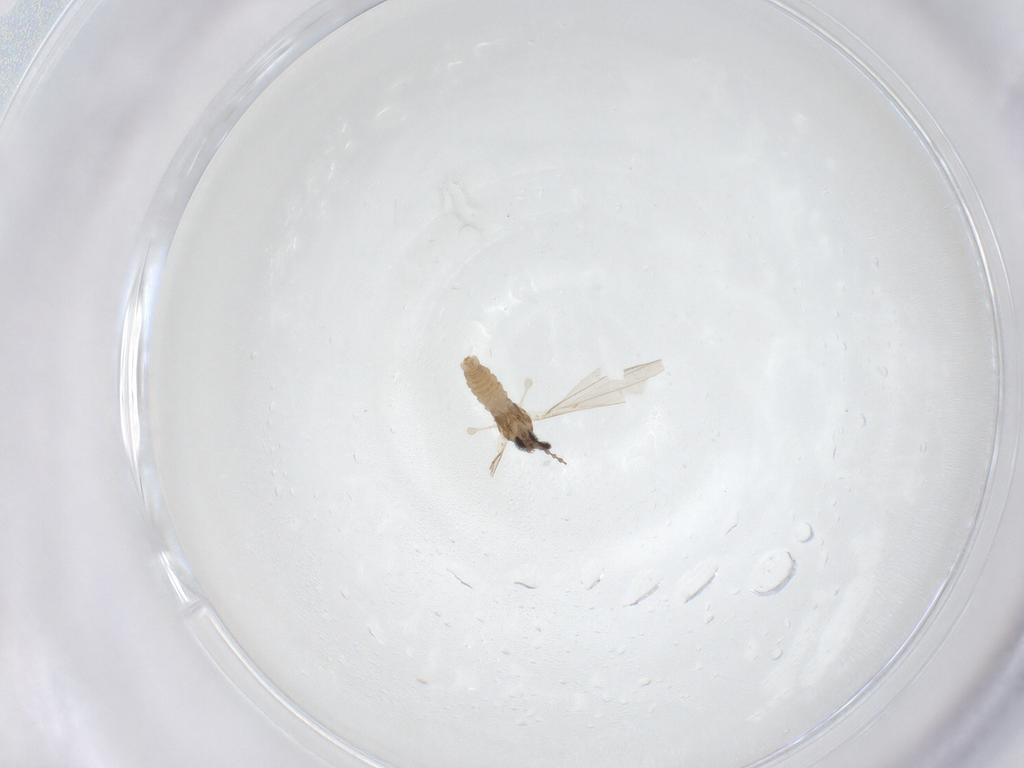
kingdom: Animalia
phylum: Arthropoda
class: Insecta
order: Diptera
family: Cecidomyiidae
